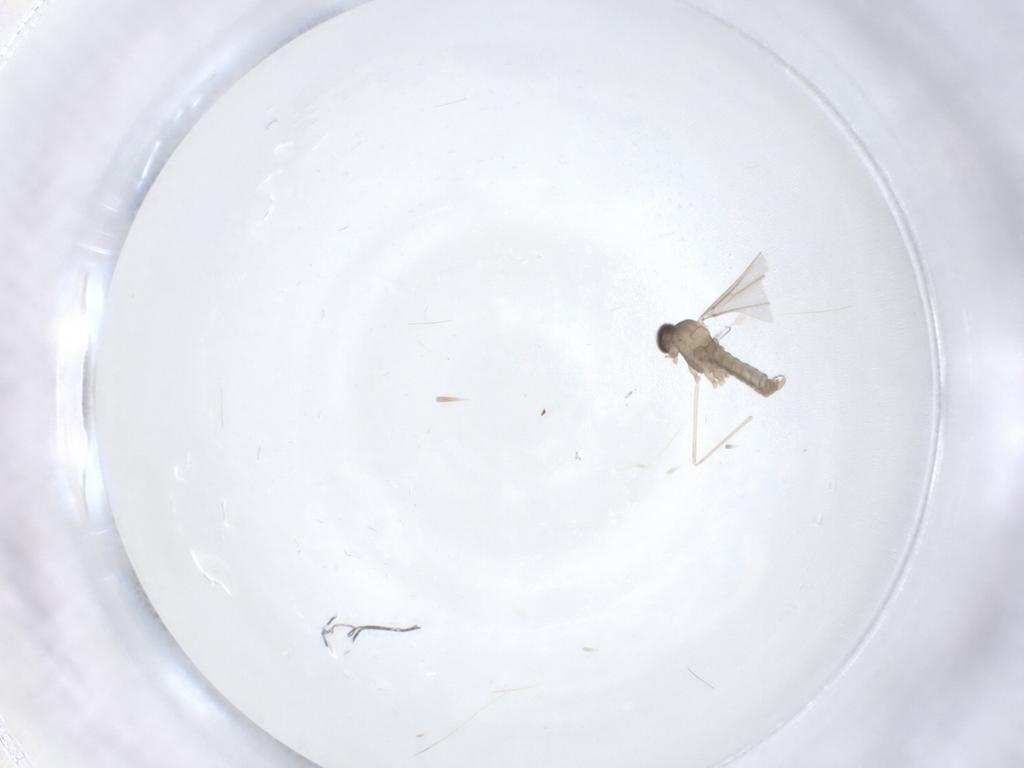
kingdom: Animalia
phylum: Arthropoda
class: Insecta
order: Diptera
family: Cecidomyiidae
